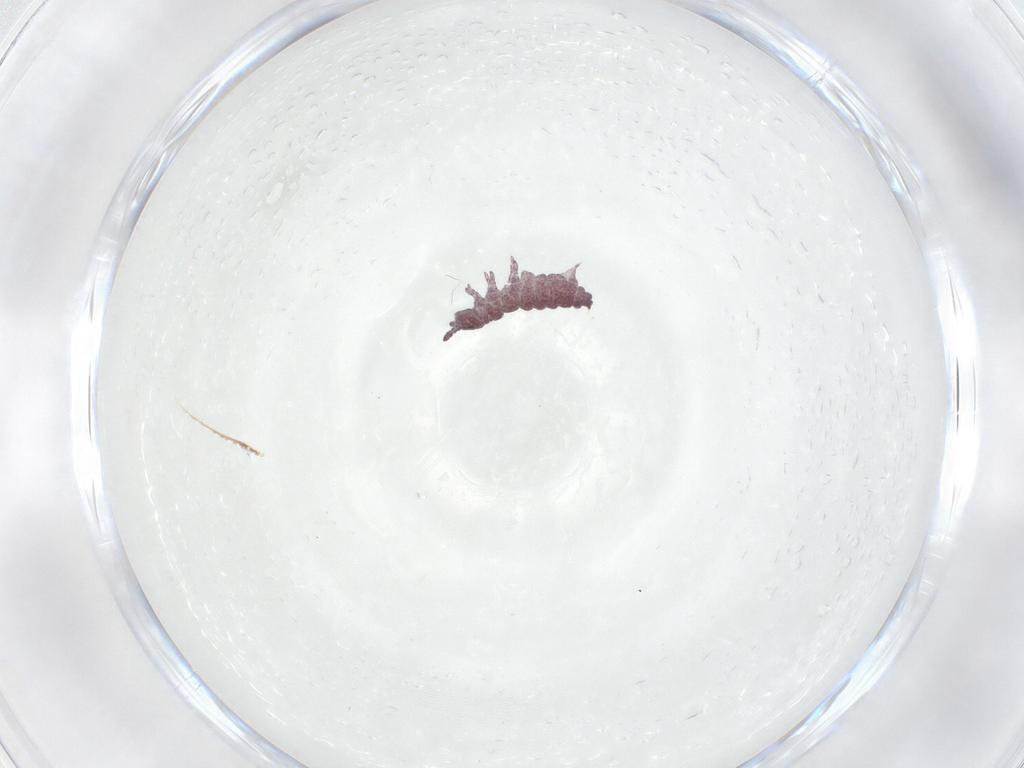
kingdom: Animalia
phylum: Arthropoda
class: Collembola
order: Poduromorpha
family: Hypogastruridae
